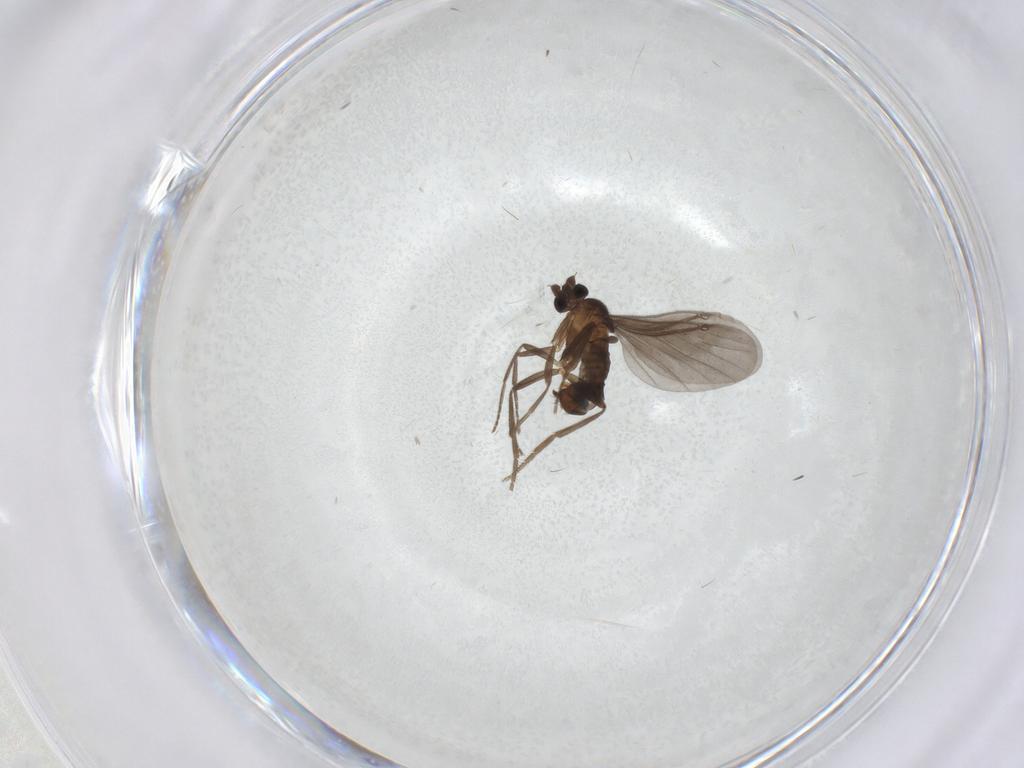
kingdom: Animalia
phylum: Arthropoda
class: Insecta
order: Diptera
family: Phoridae
